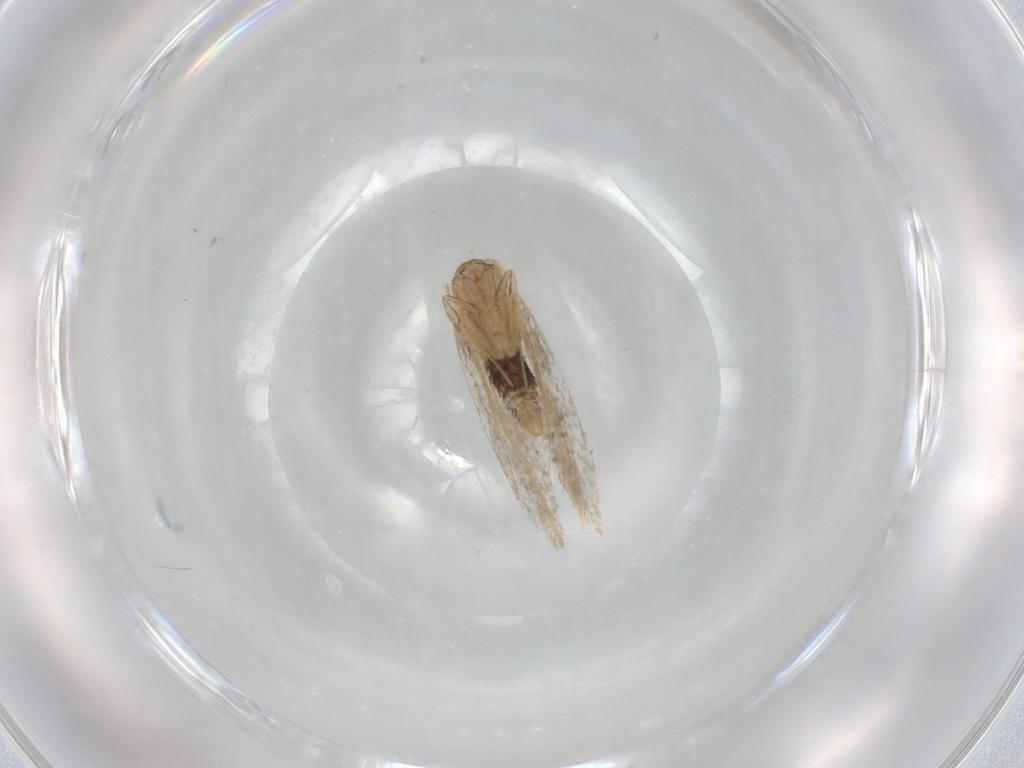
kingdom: Animalia
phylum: Arthropoda
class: Insecta
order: Lepidoptera
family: Tineidae
